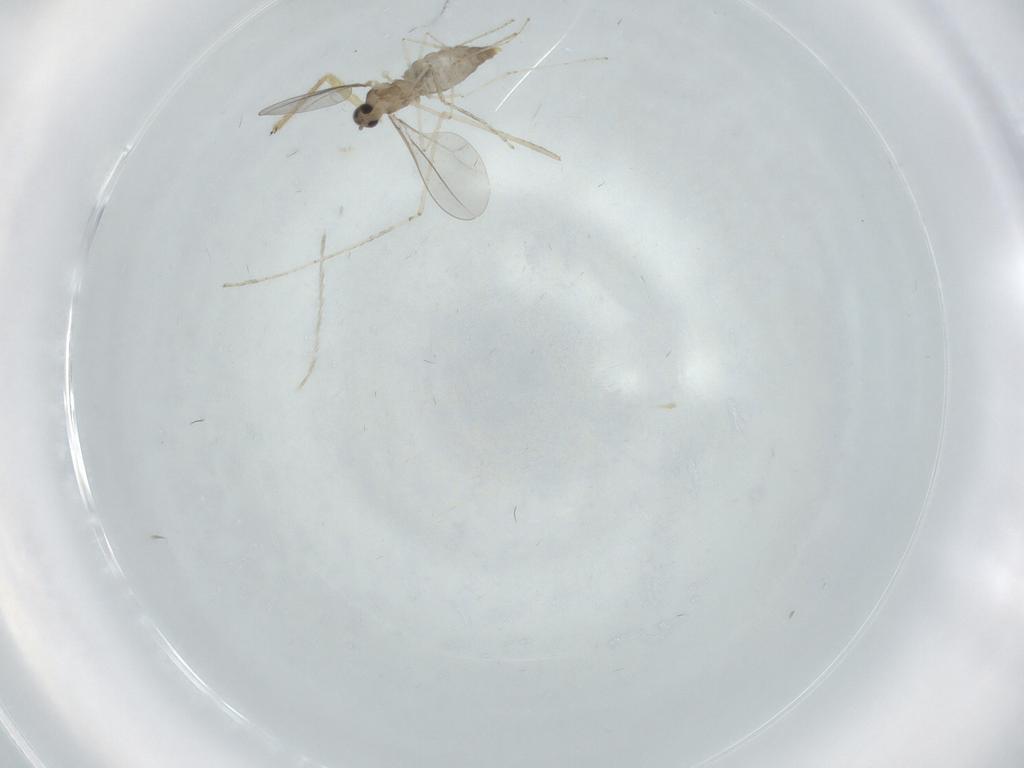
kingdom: Animalia
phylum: Arthropoda
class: Insecta
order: Diptera
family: Chironomidae
